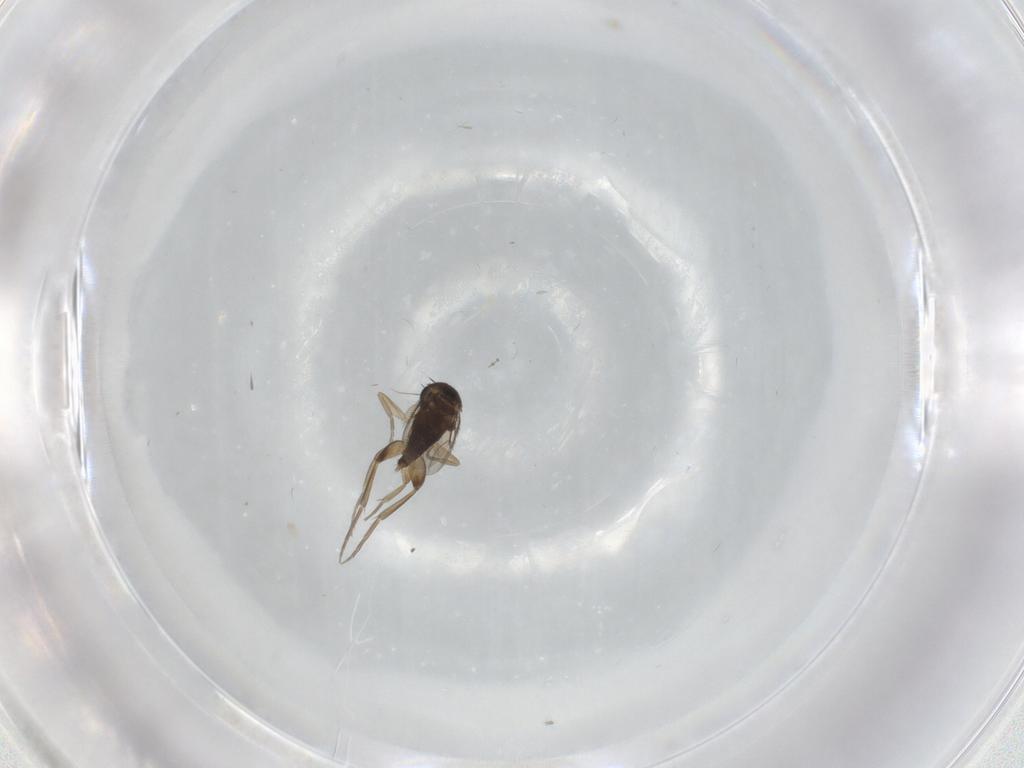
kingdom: Animalia
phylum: Arthropoda
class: Insecta
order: Diptera
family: Phoridae
